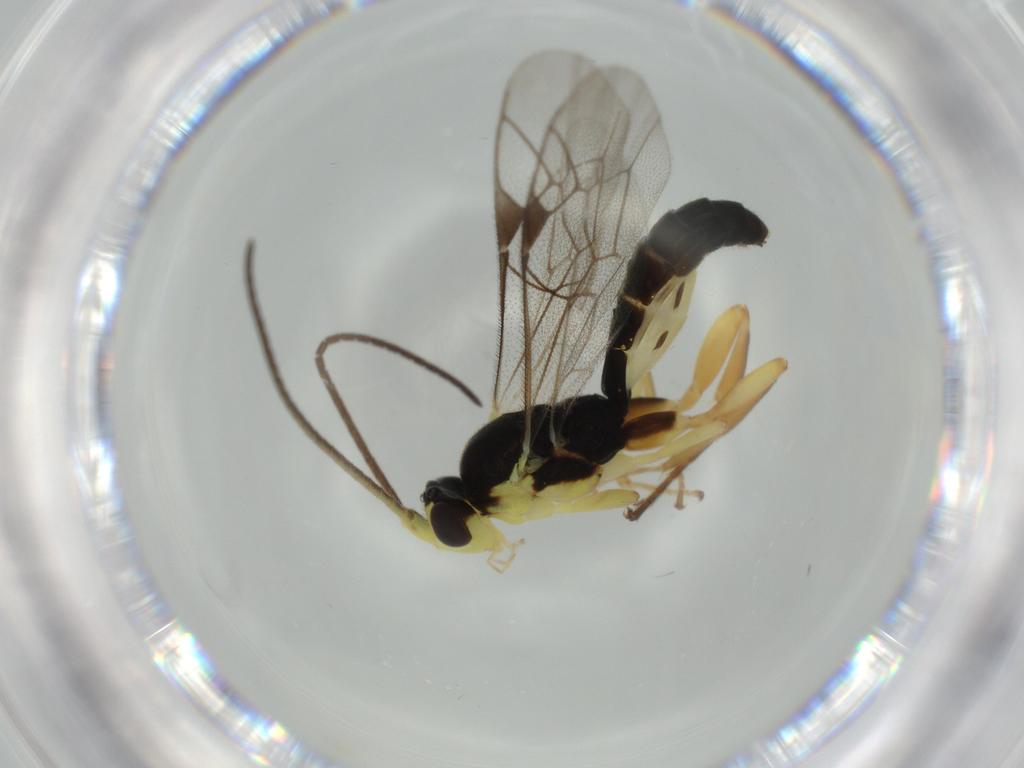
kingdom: Animalia
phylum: Arthropoda
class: Insecta
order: Hymenoptera
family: Ichneumonidae
